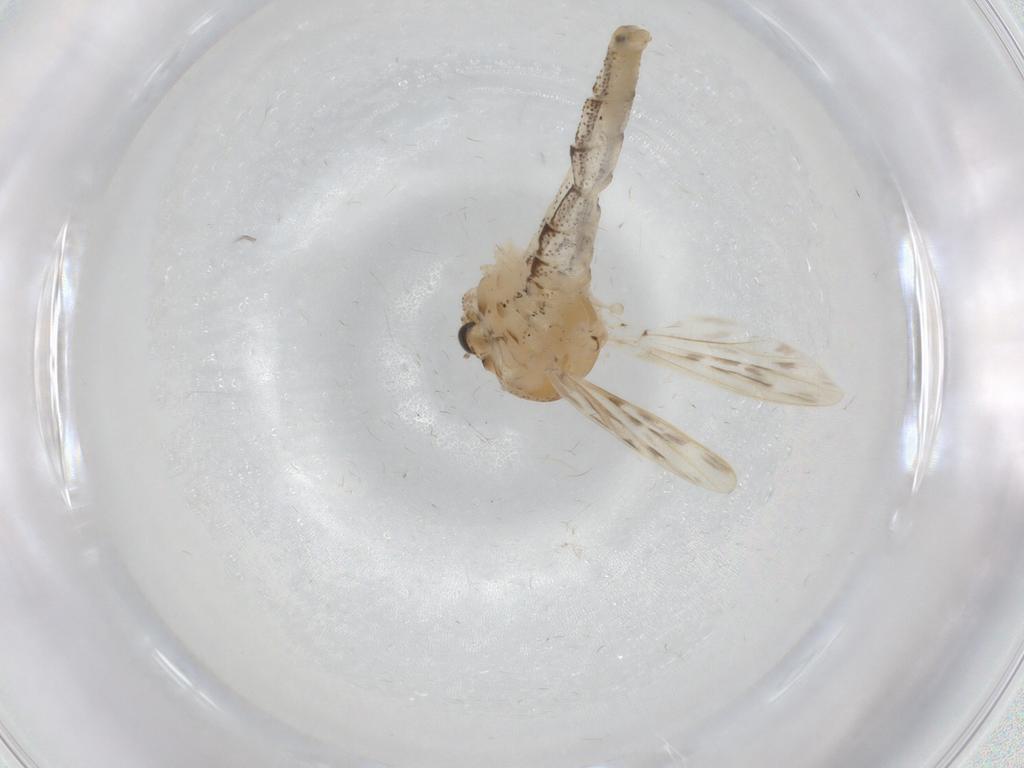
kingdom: Animalia
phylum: Arthropoda
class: Insecta
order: Diptera
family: Chaoboridae
